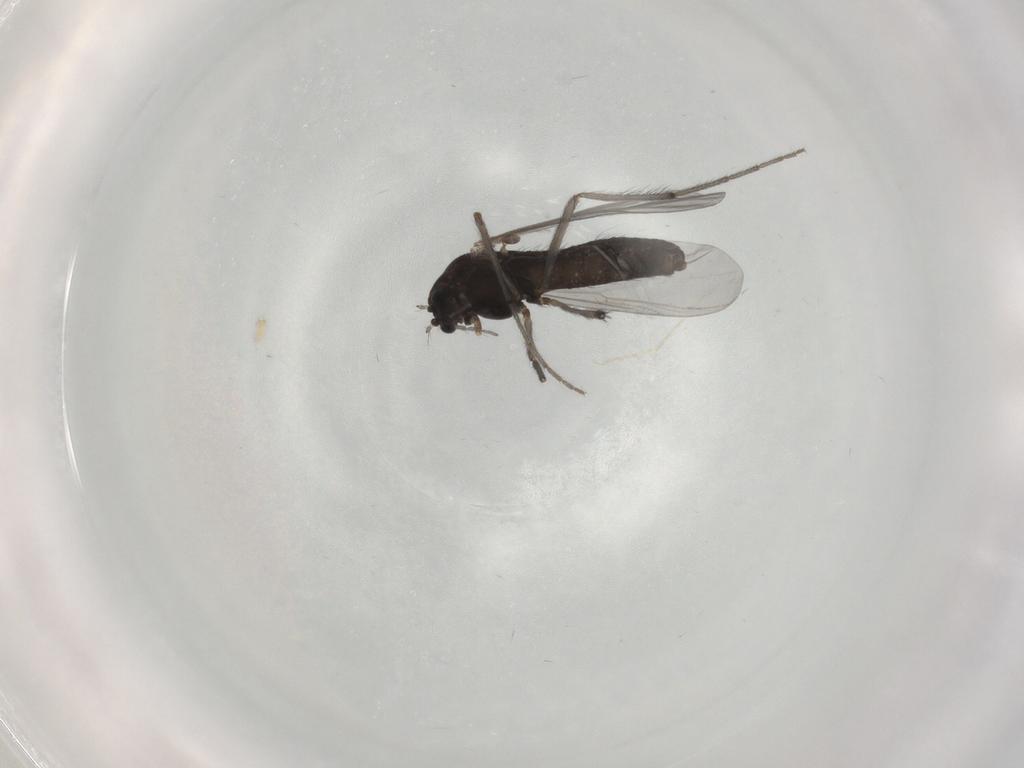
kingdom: Animalia
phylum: Arthropoda
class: Insecta
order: Diptera
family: Chironomidae
